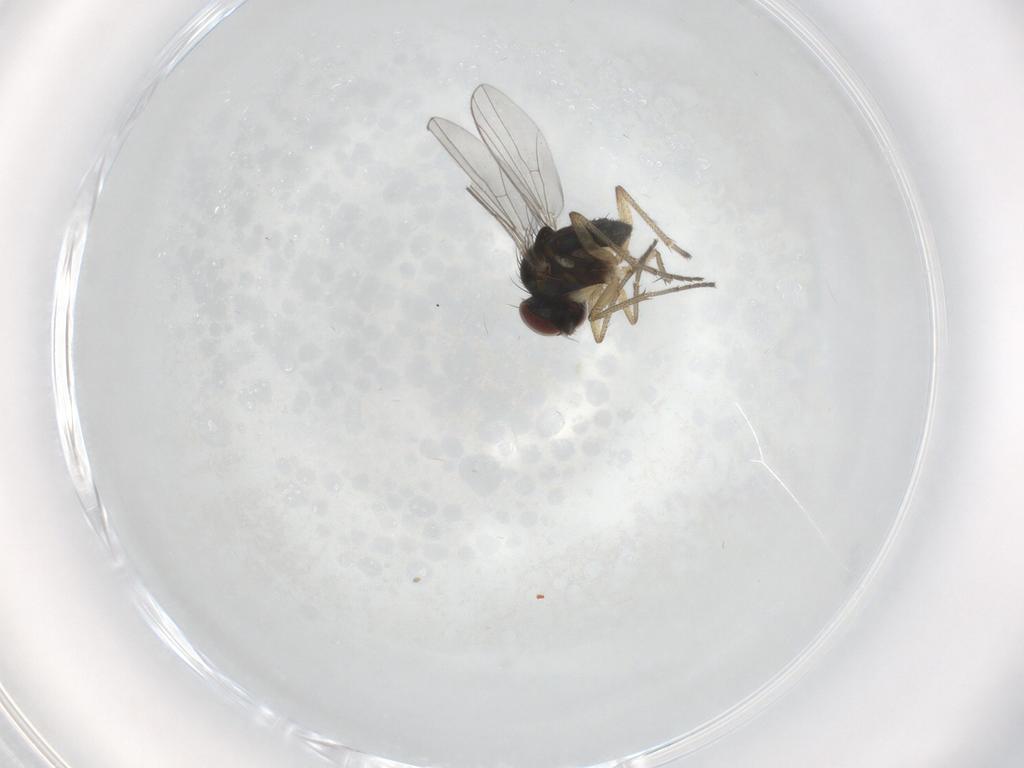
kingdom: Animalia
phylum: Arthropoda
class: Insecta
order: Diptera
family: Ceratopogonidae
